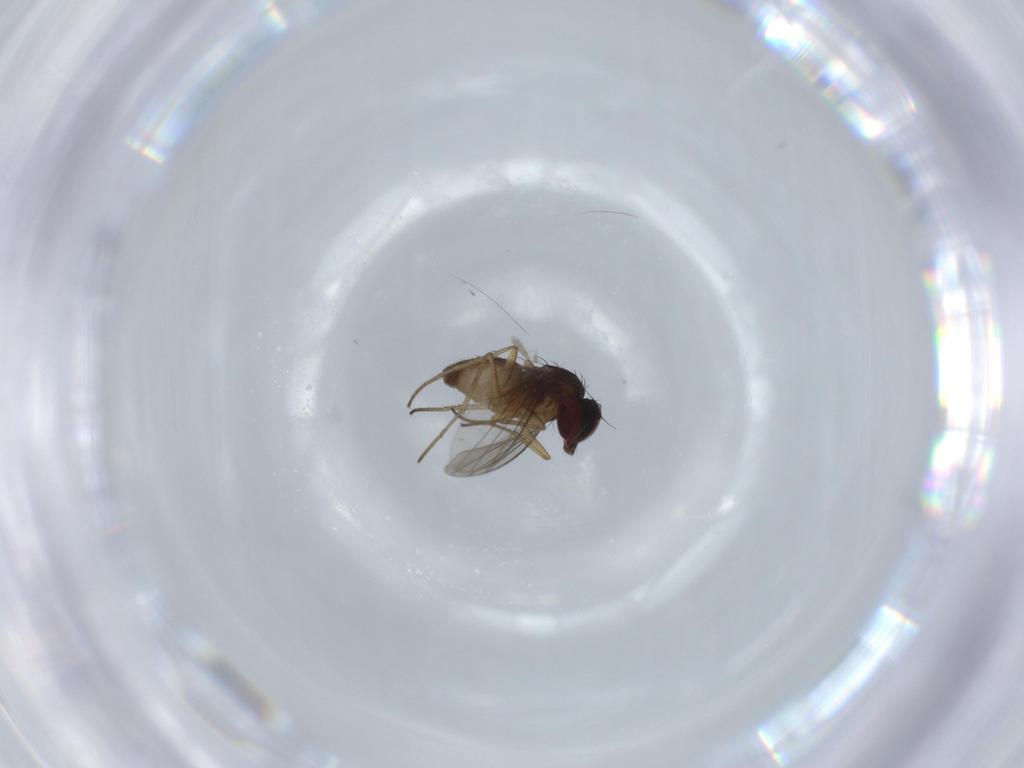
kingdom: Animalia
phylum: Arthropoda
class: Insecta
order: Diptera
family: Dolichopodidae
